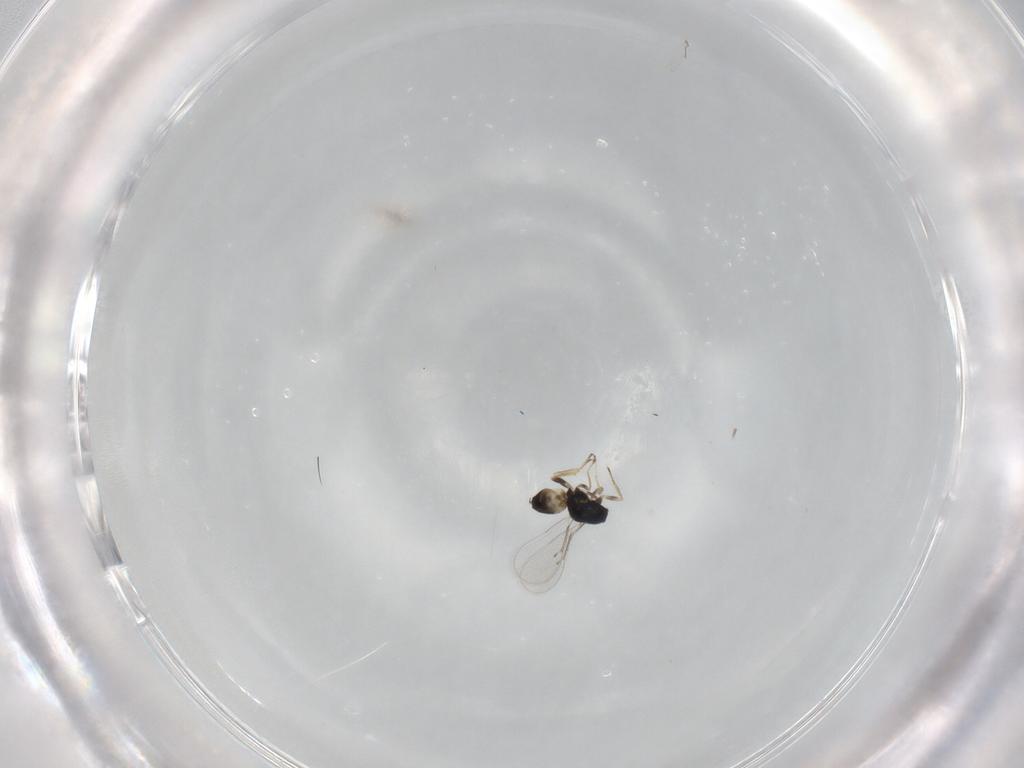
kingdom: Animalia
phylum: Arthropoda
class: Insecta
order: Hymenoptera
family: Eulophidae
